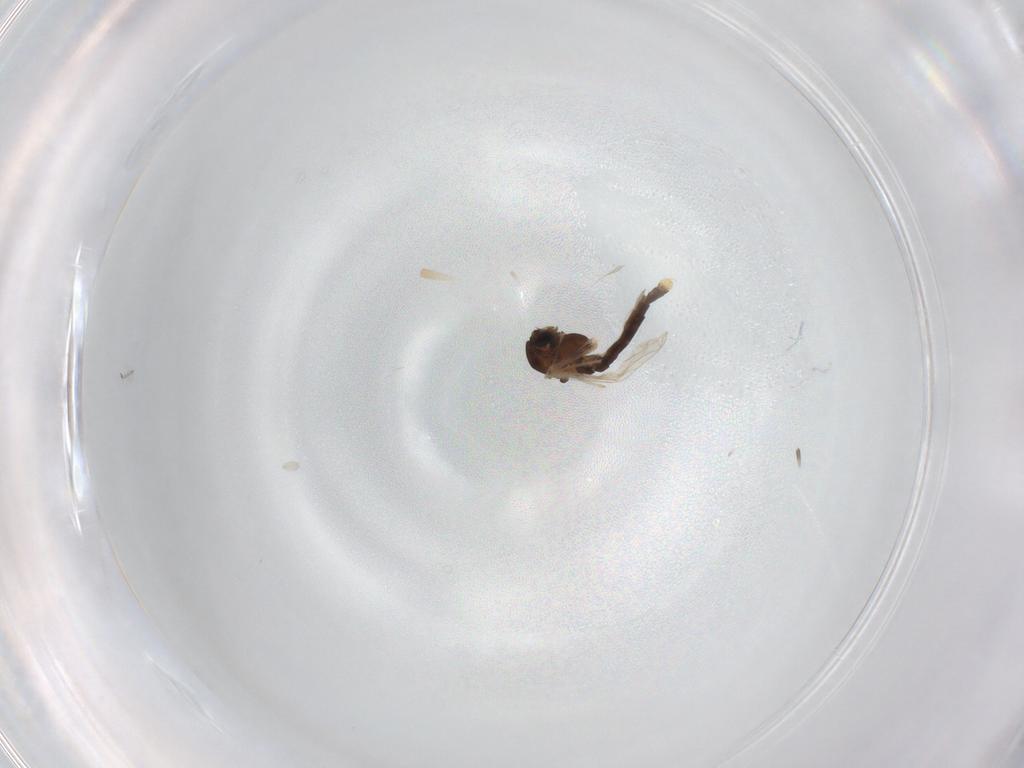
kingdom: Animalia
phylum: Arthropoda
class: Insecta
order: Diptera
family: Chironomidae
